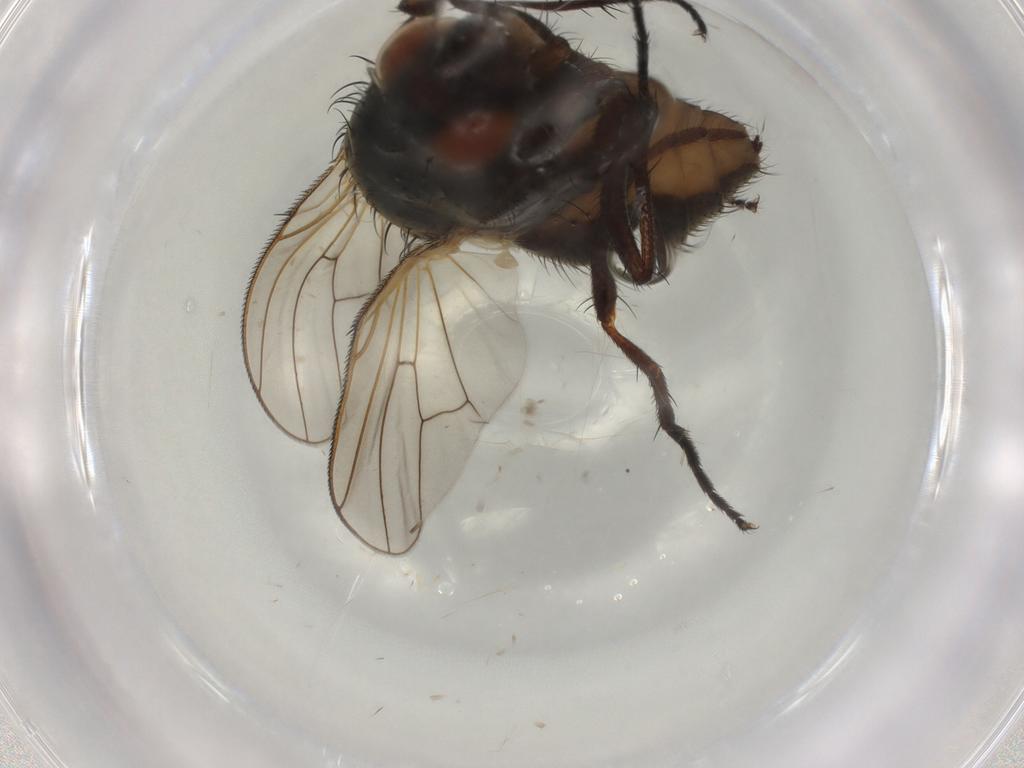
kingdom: Animalia
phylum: Arthropoda
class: Insecta
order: Diptera
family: Anthomyiidae
